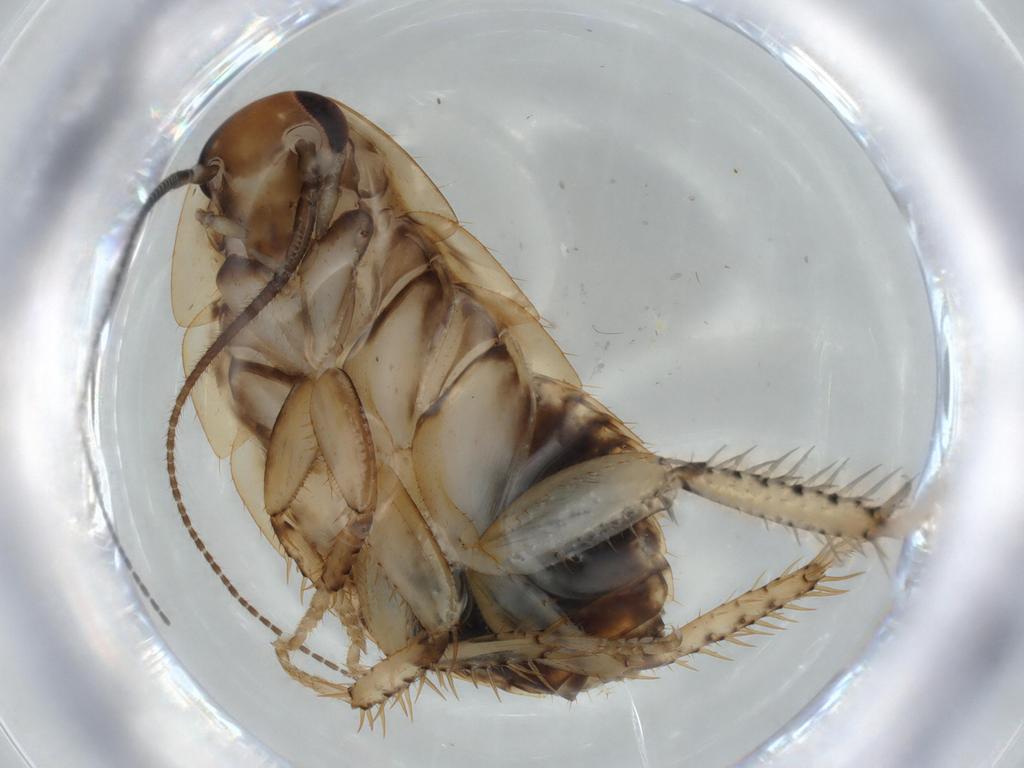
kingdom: Animalia
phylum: Arthropoda
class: Insecta
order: Blattodea
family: Ectobiidae
